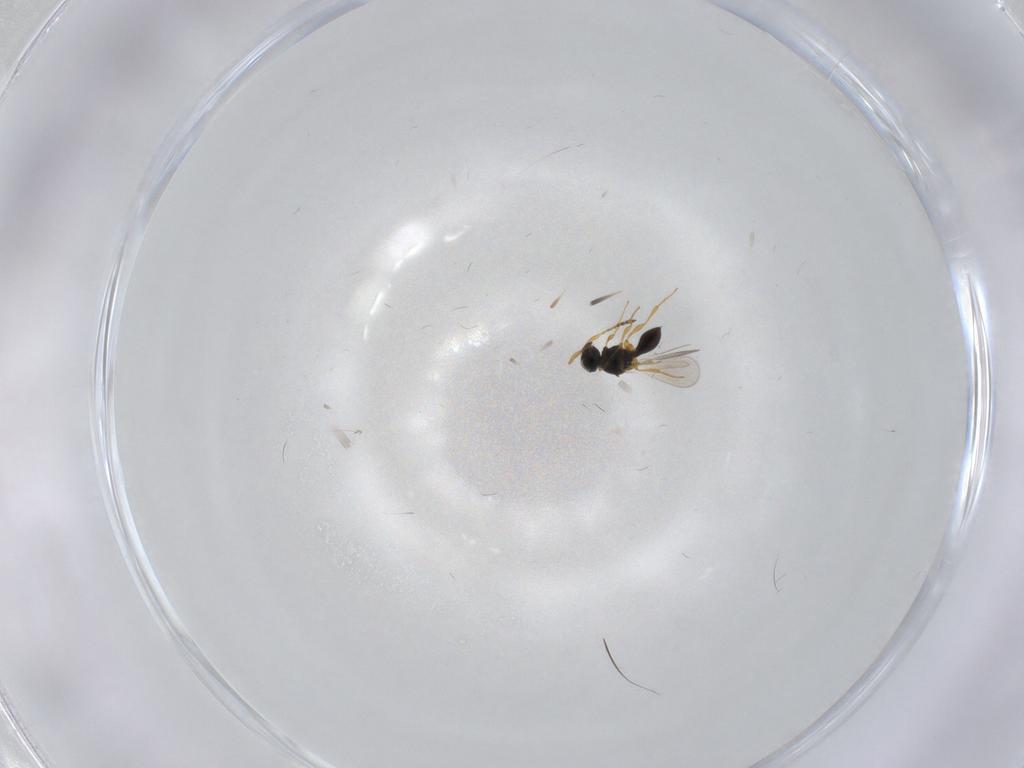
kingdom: Animalia
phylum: Arthropoda
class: Insecta
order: Hymenoptera
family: Platygastridae
